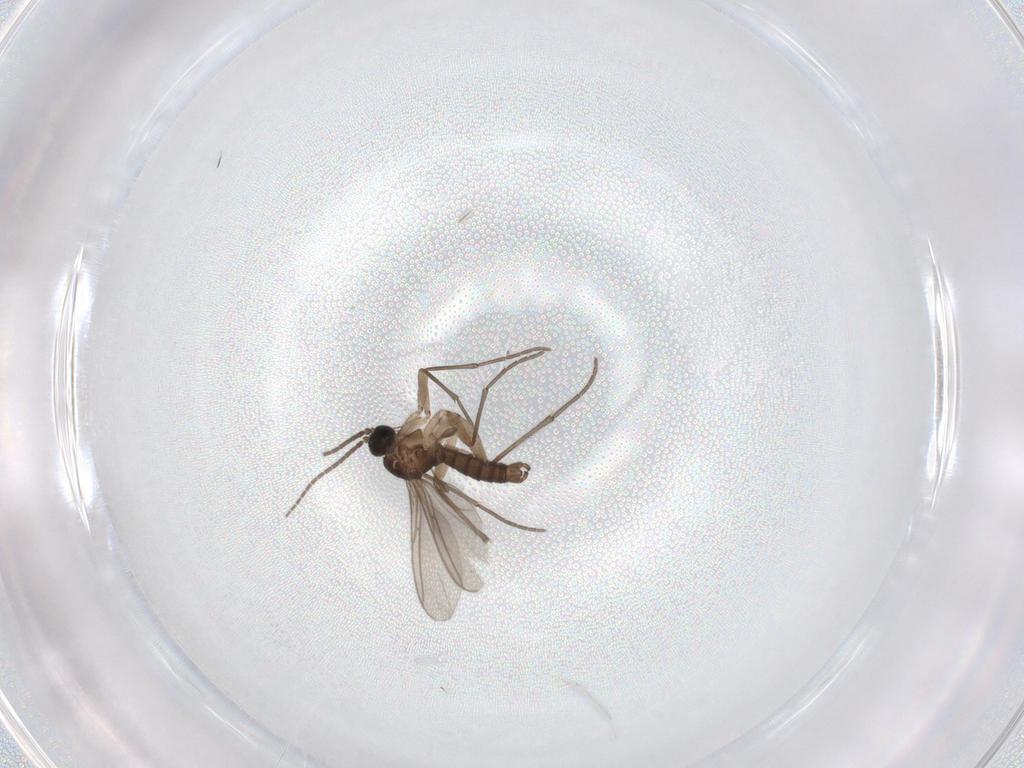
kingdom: Animalia
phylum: Arthropoda
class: Insecta
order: Diptera
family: Sciaridae
